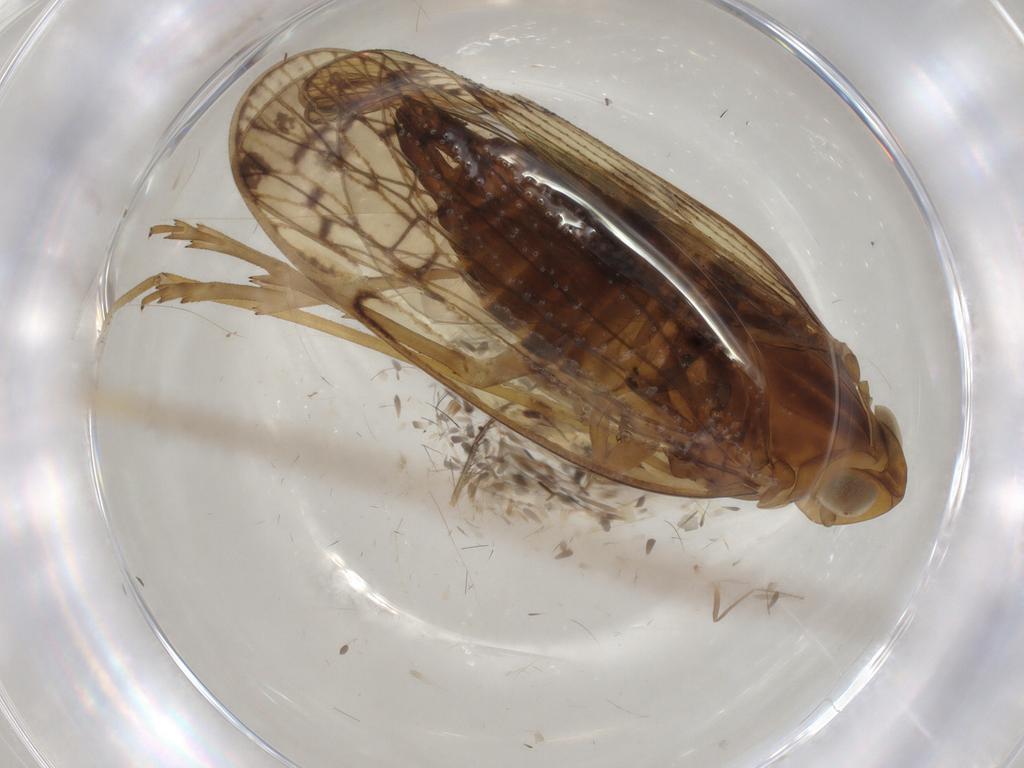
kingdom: Animalia
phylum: Arthropoda
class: Insecta
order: Hemiptera
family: Cicadellidae
